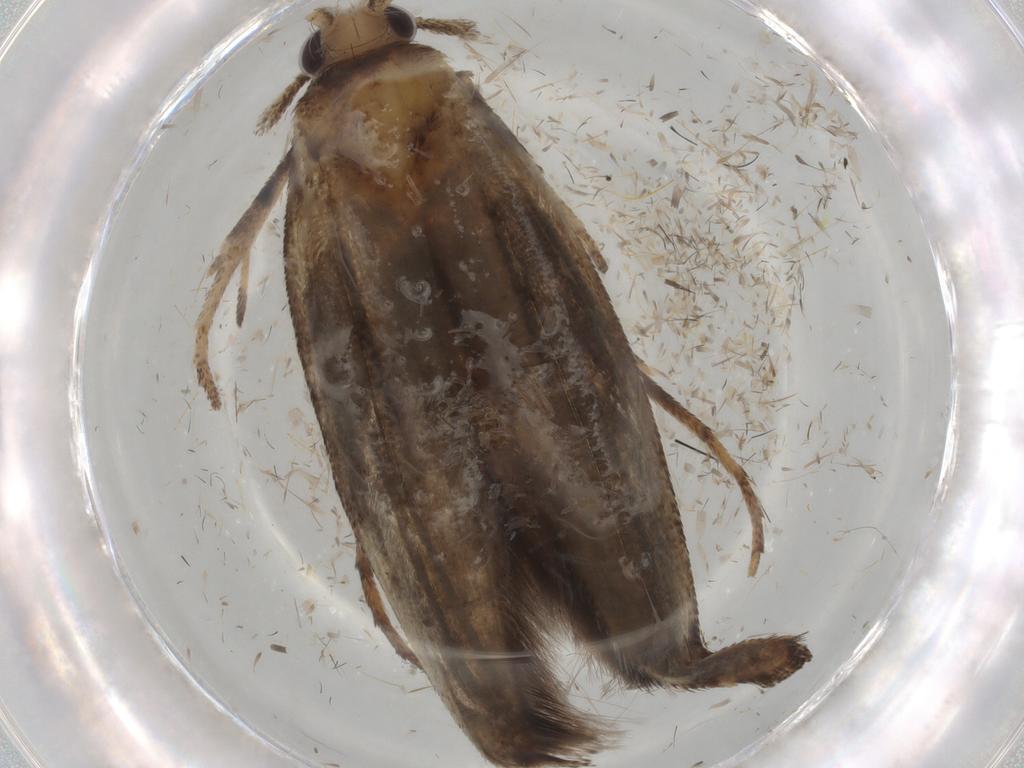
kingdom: Animalia
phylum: Arthropoda
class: Insecta
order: Lepidoptera
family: Yponomeutidae
